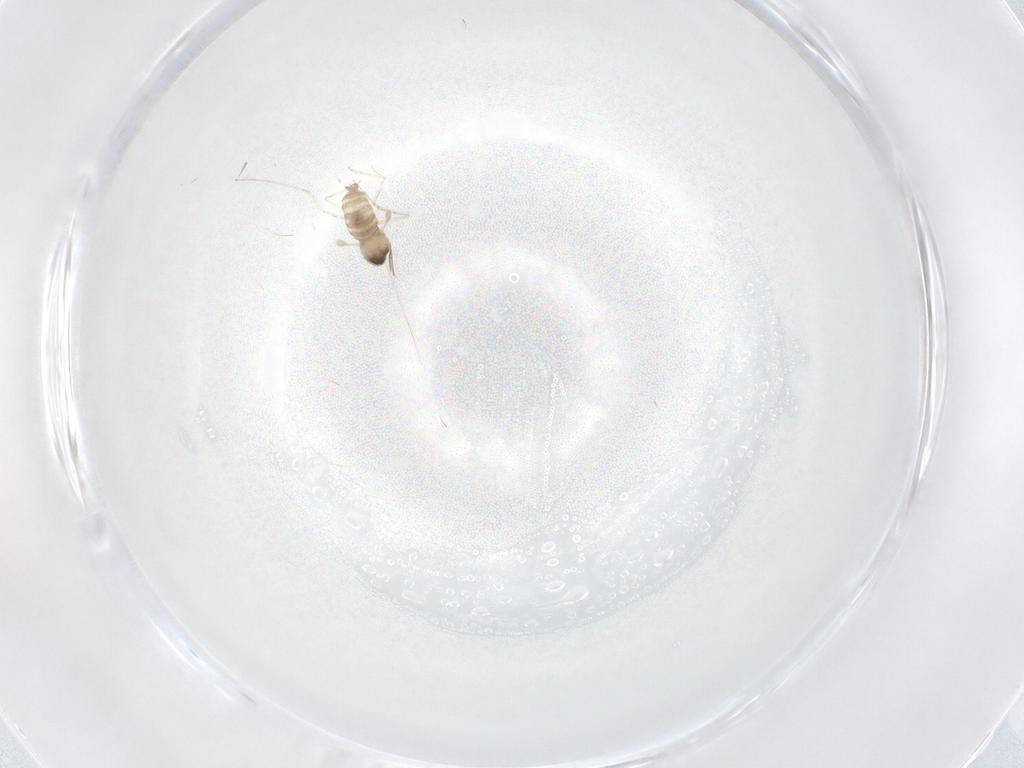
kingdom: Animalia
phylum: Arthropoda
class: Insecta
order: Diptera
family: Cecidomyiidae
